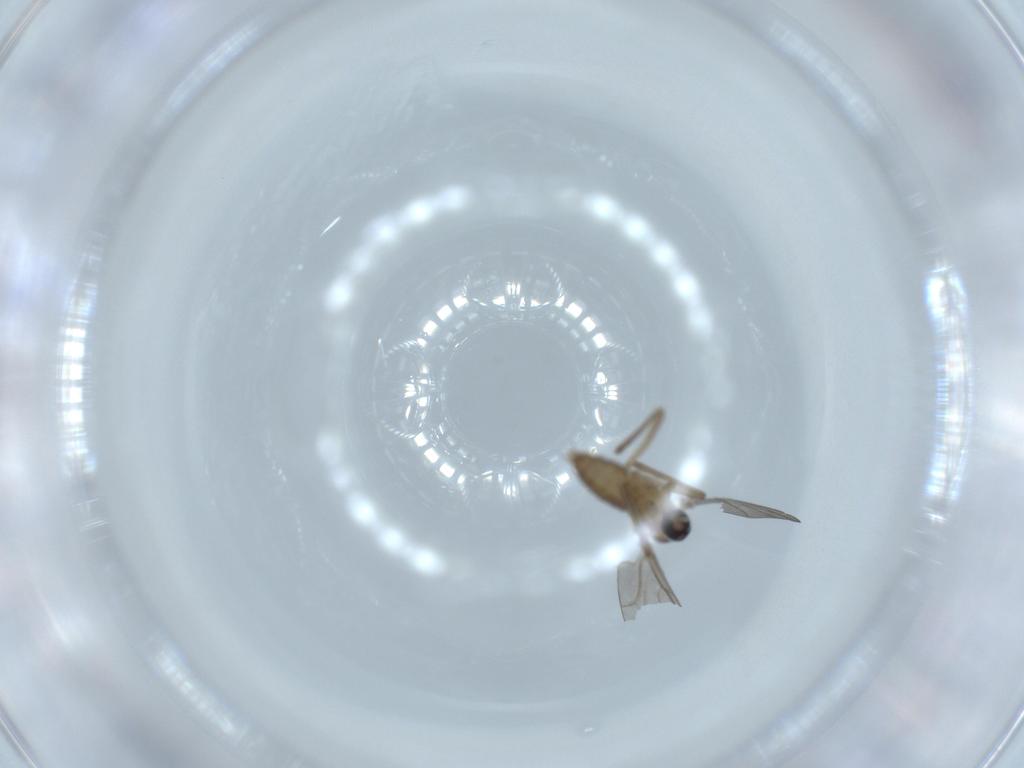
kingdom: Animalia
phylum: Arthropoda
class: Insecta
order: Diptera
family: Cecidomyiidae
